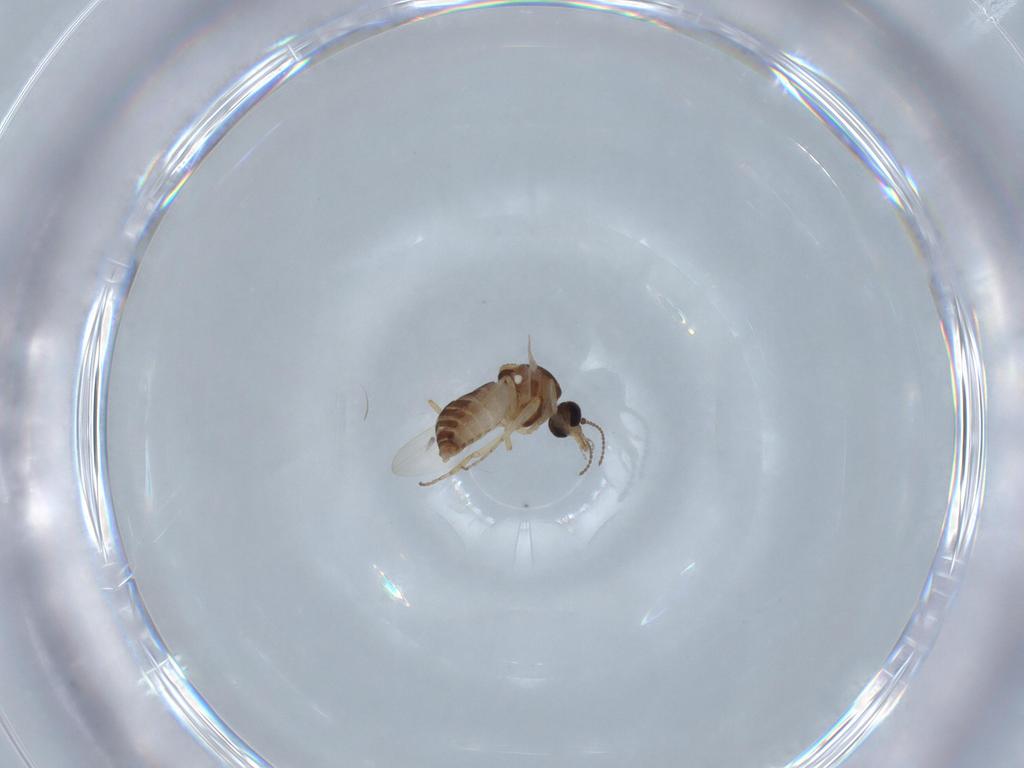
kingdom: Animalia
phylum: Arthropoda
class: Insecta
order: Diptera
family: Ceratopogonidae
